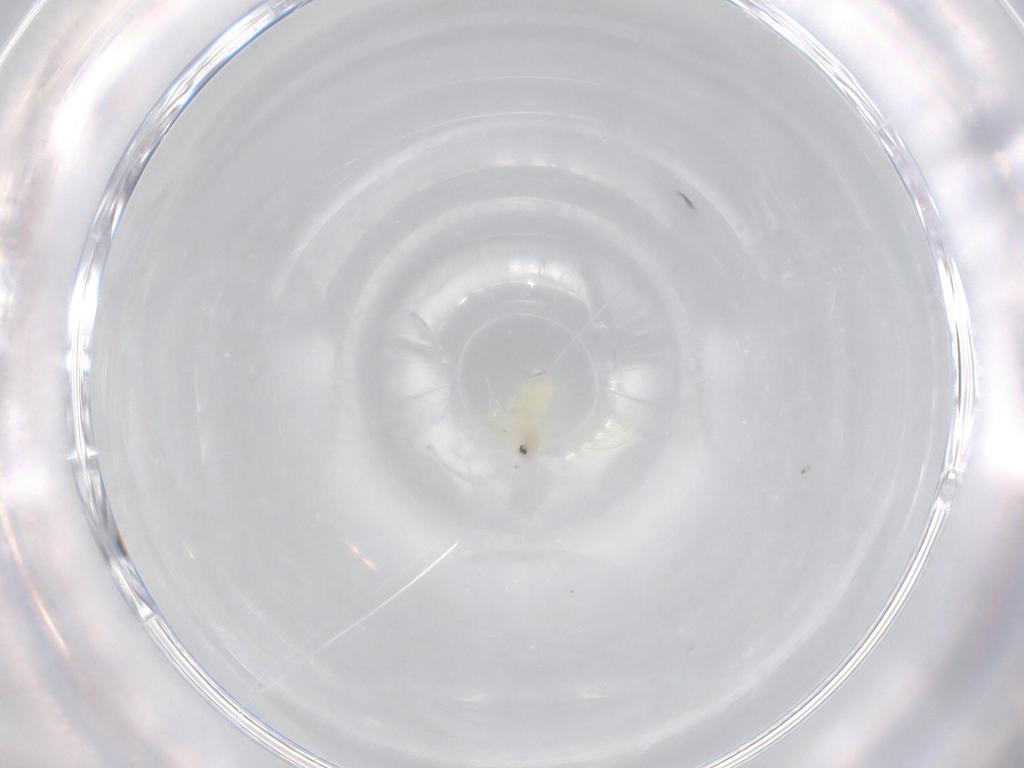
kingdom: Animalia
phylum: Arthropoda
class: Insecta
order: Hemiptera
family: Aleyrodidae
